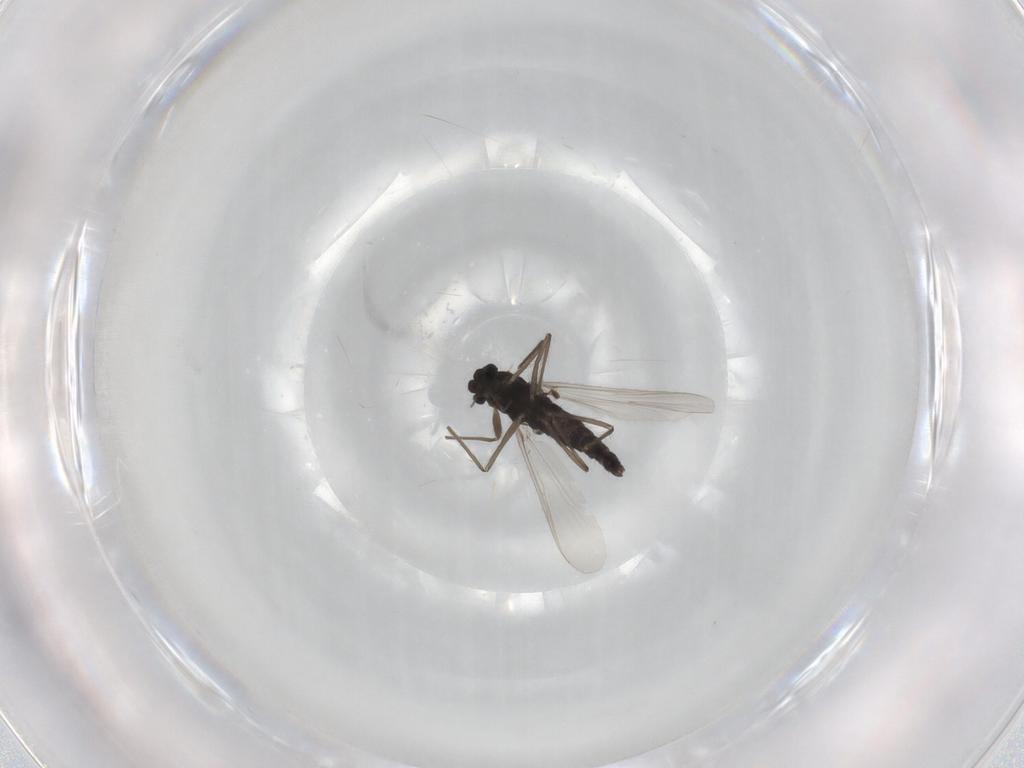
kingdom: Animalia
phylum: Arthropoda
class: Insecta
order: Diptera
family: Chironomidae
